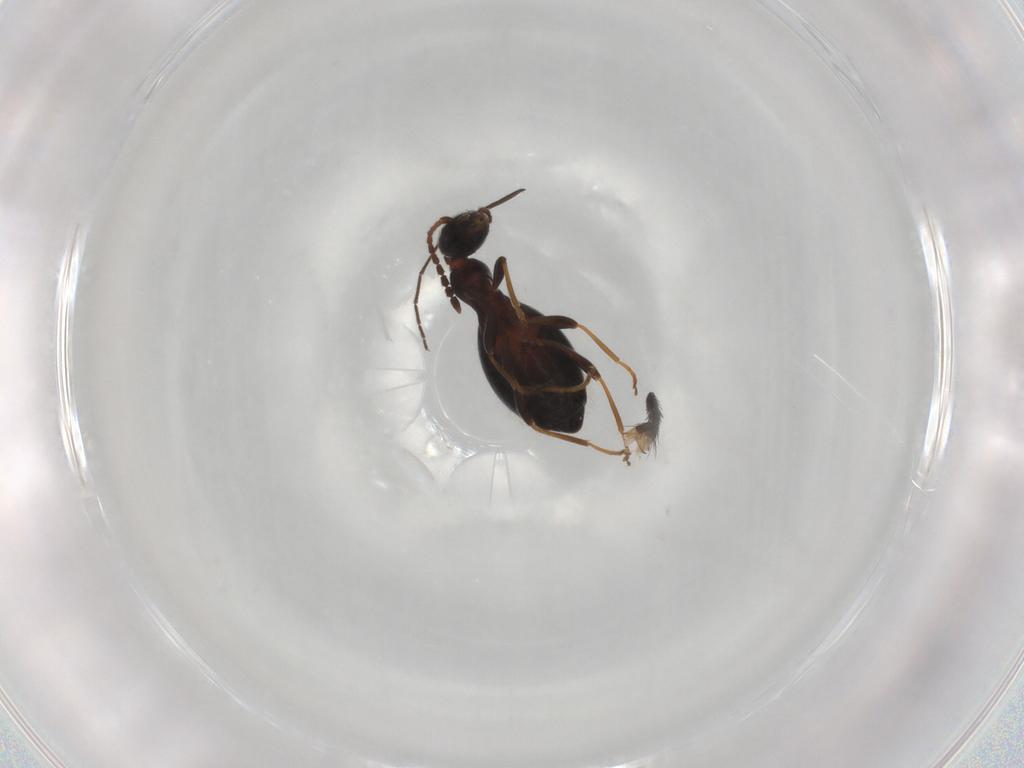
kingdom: Animalia
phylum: Arthropoda
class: Insecta
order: Coleoptera
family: Anthicidae
